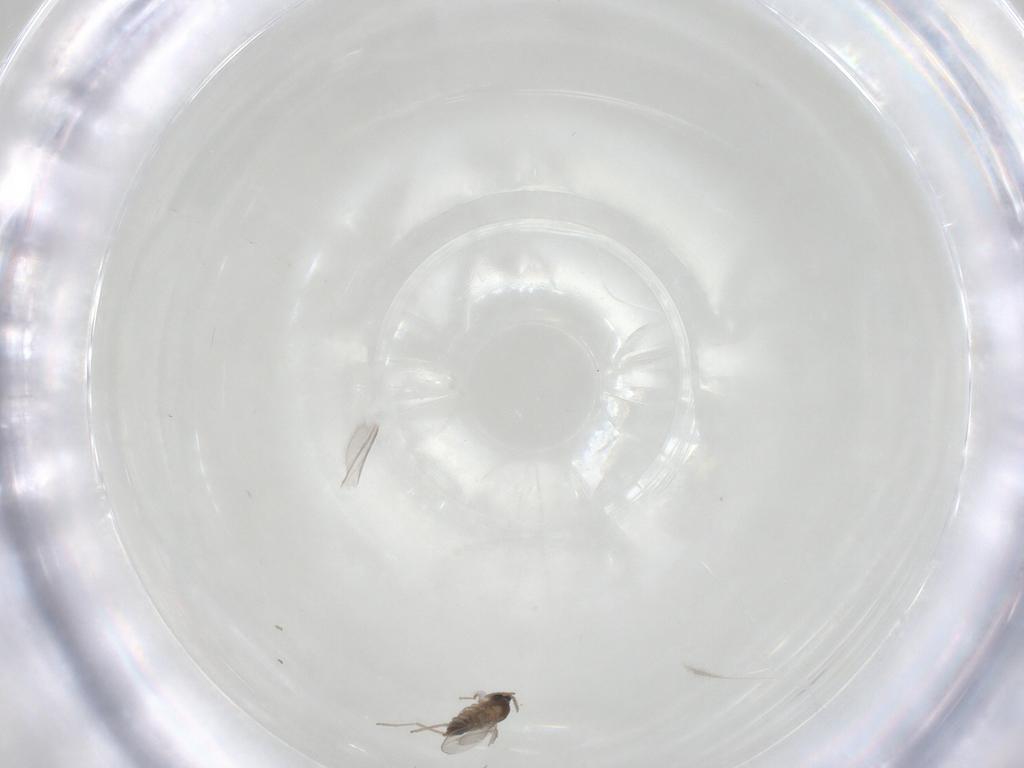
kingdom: Animalia
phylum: Arthropoda
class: Insecta
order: Diptera
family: Cecidomyiidae
